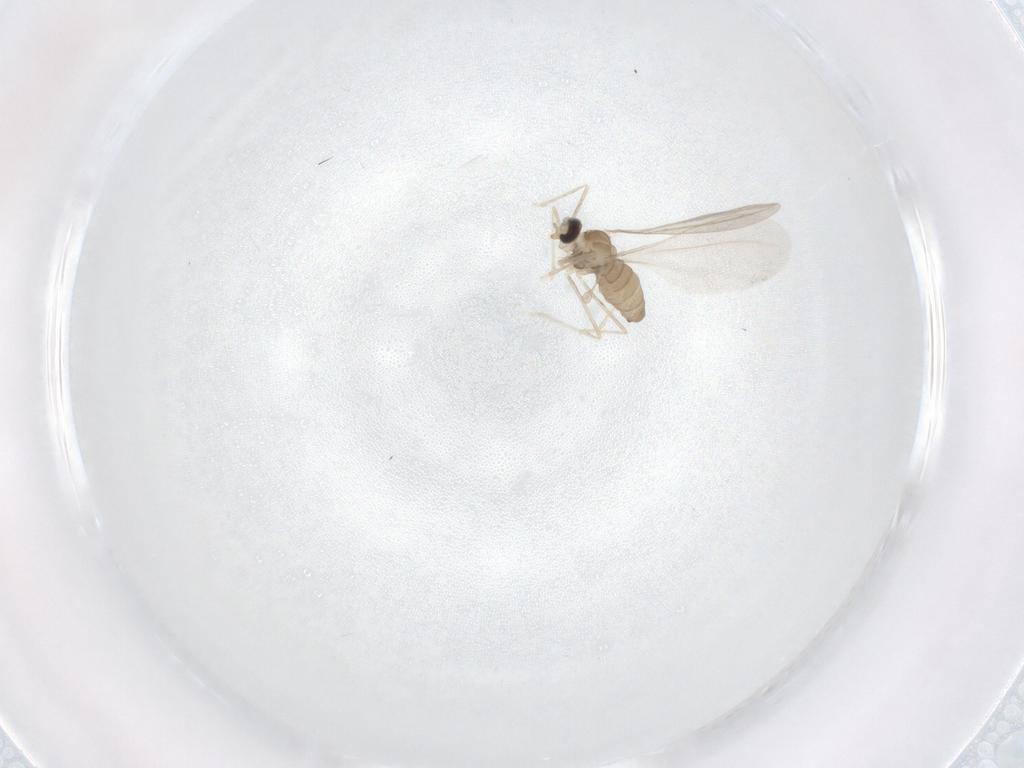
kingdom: Animalia
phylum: Arthropoda
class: Insecta
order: Diptera
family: Cecidomyiidae
